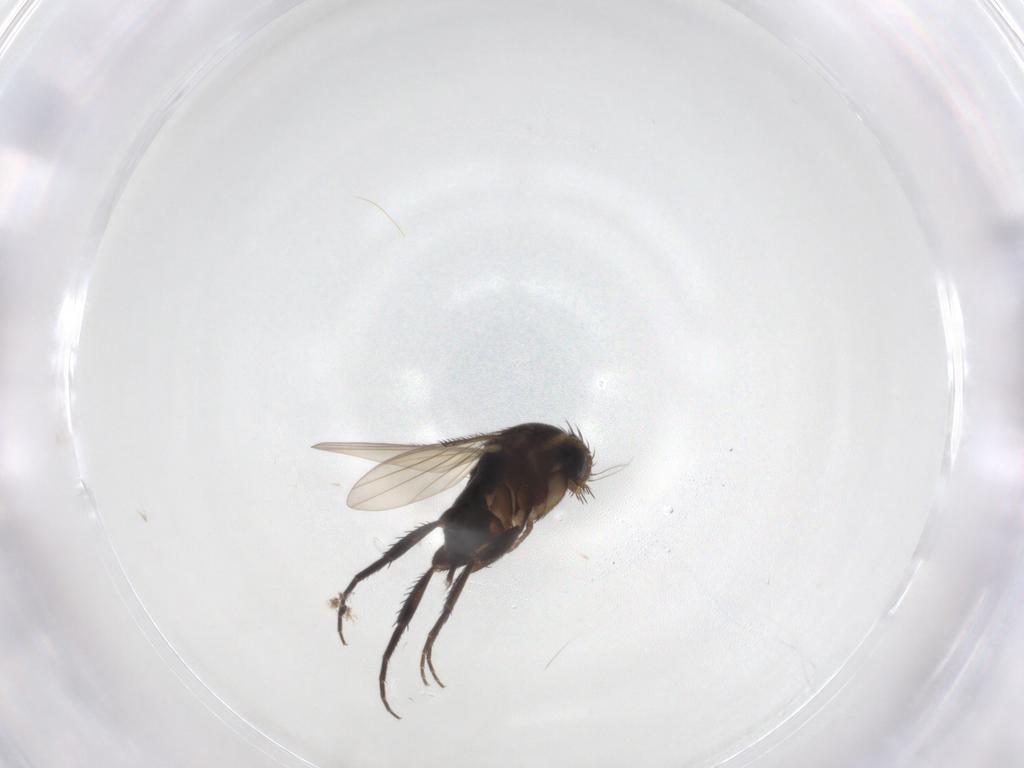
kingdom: Animalia
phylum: Arthropoda
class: Insecta
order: Diptera
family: Phoridae
